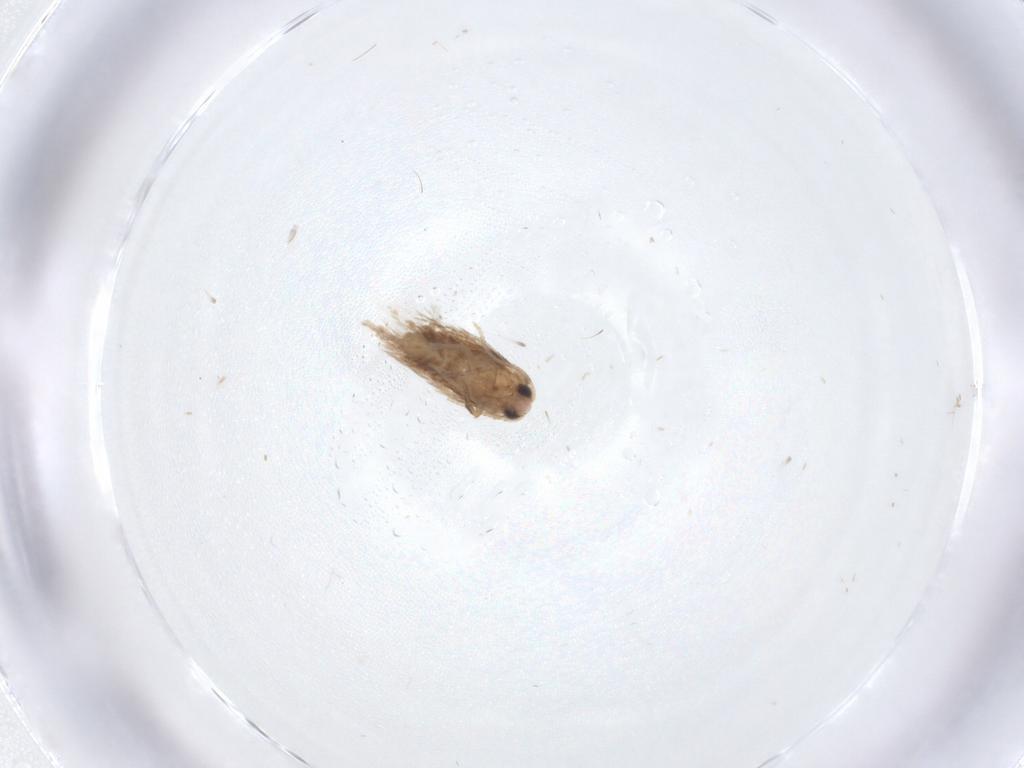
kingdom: Animalia
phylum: Arthropoda
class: Insecta
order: Lepidoptera
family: Nepticulidae
